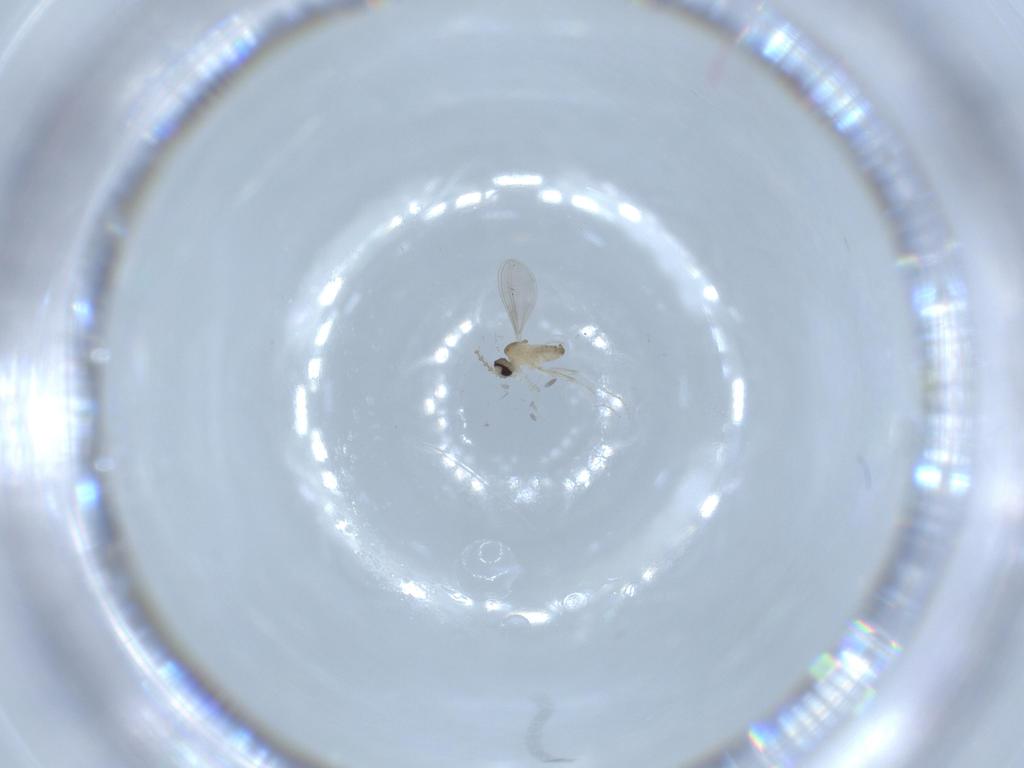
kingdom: Animalia
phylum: Arthropoda
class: Insecta
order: Diptera
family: Cecidomyiidae
